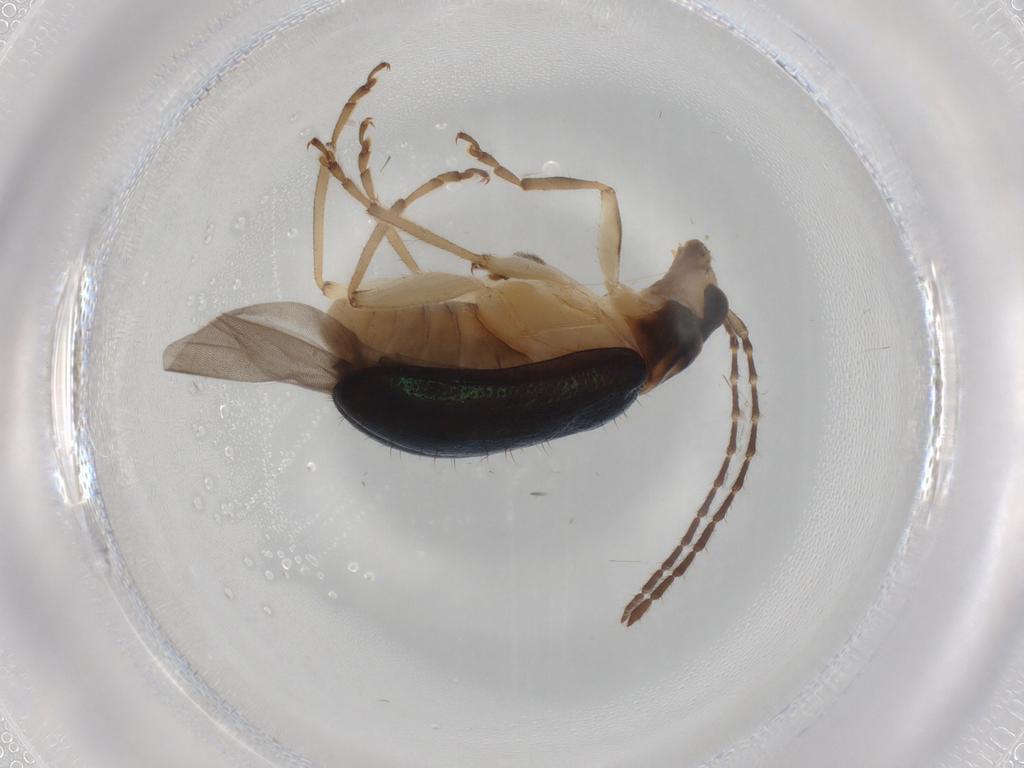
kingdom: Animalia
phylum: Arthropoda
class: Insecta
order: Coleoptera
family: Chrysomelidae
